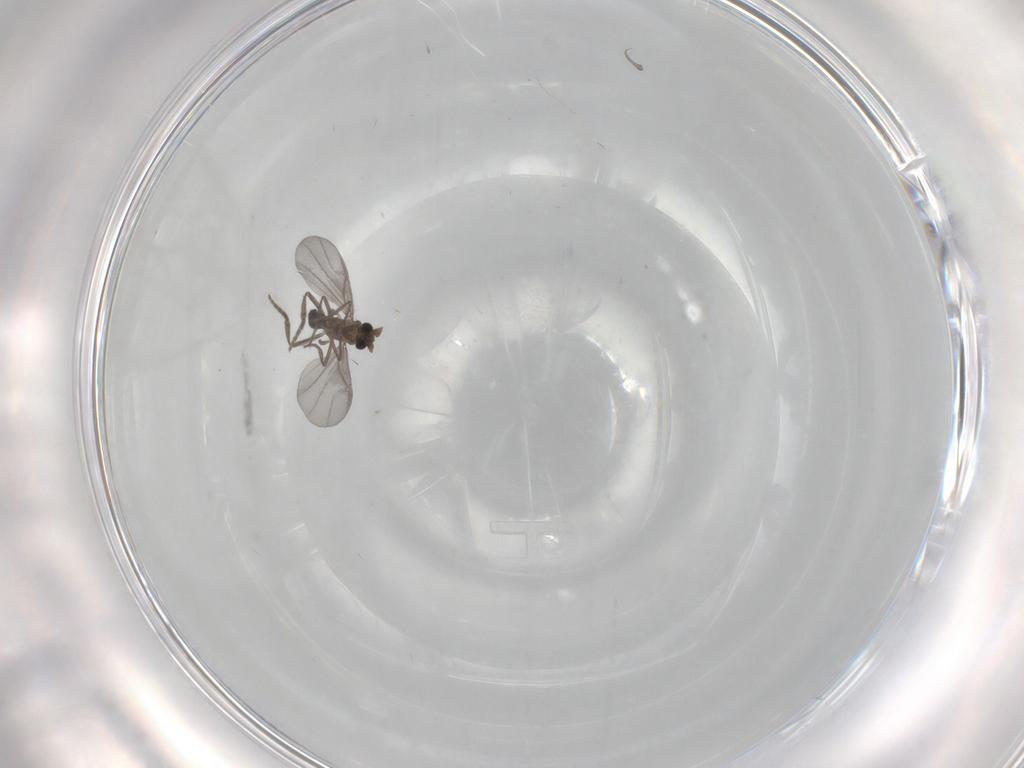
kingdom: Animalia
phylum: Arthropoda
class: Insecta
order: Diptera
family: Phoridae
